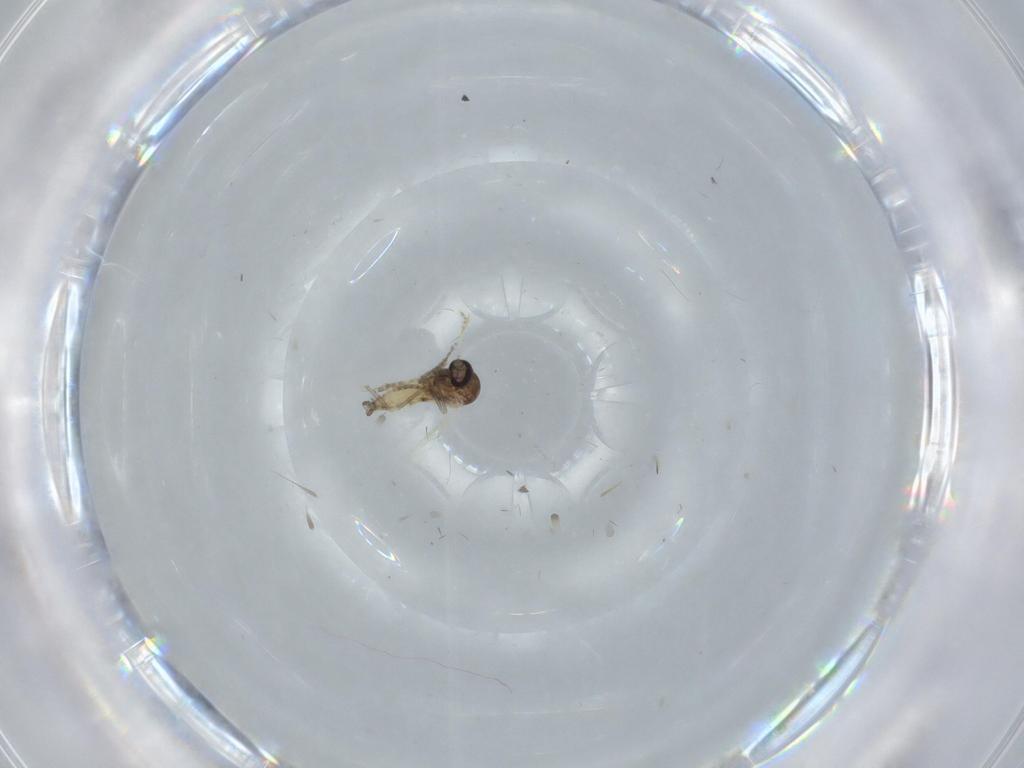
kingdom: Animalia
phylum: Arthropoda
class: Insecta
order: Diptera
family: Ceratopogonidae
